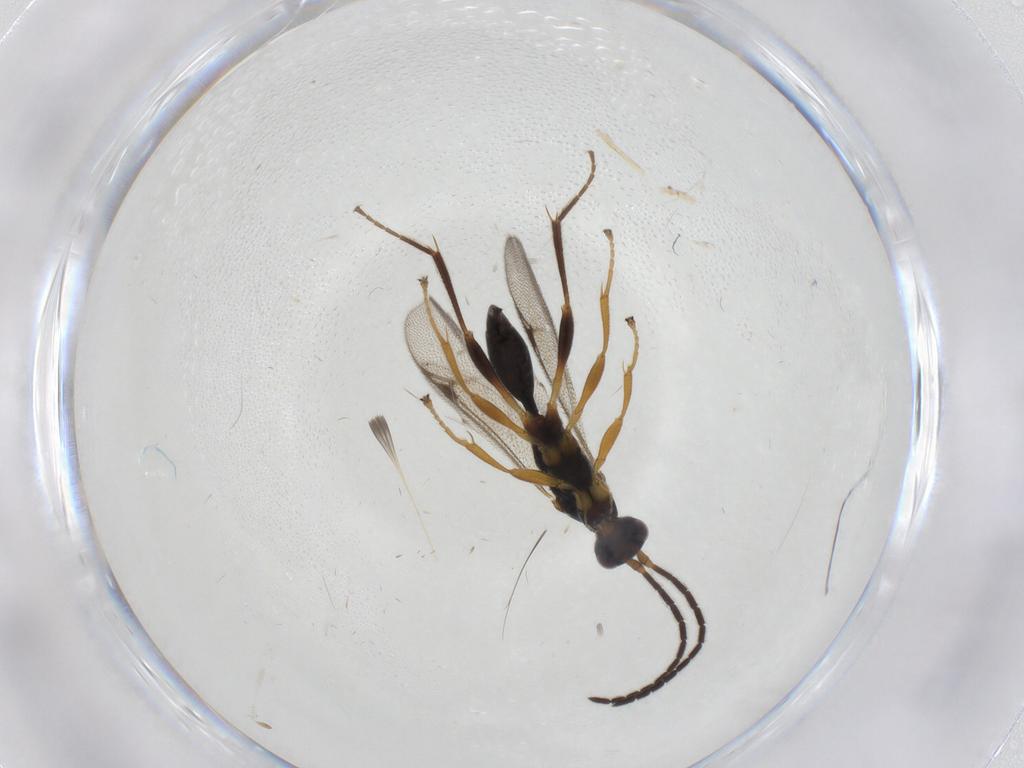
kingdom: Animalia
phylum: Arthropoda
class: Insecta
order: Hymenoptera
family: Proctotrupidae
